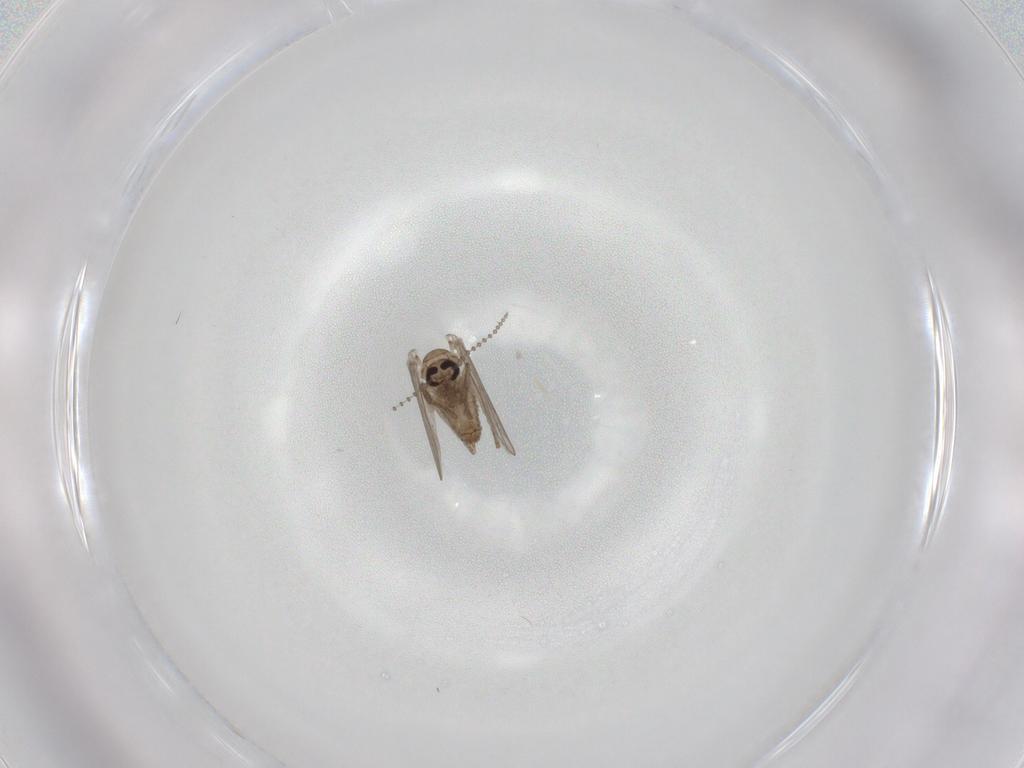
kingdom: Animalia
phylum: Arthropoda
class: Insecta
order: Diptera
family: Psychodidae
